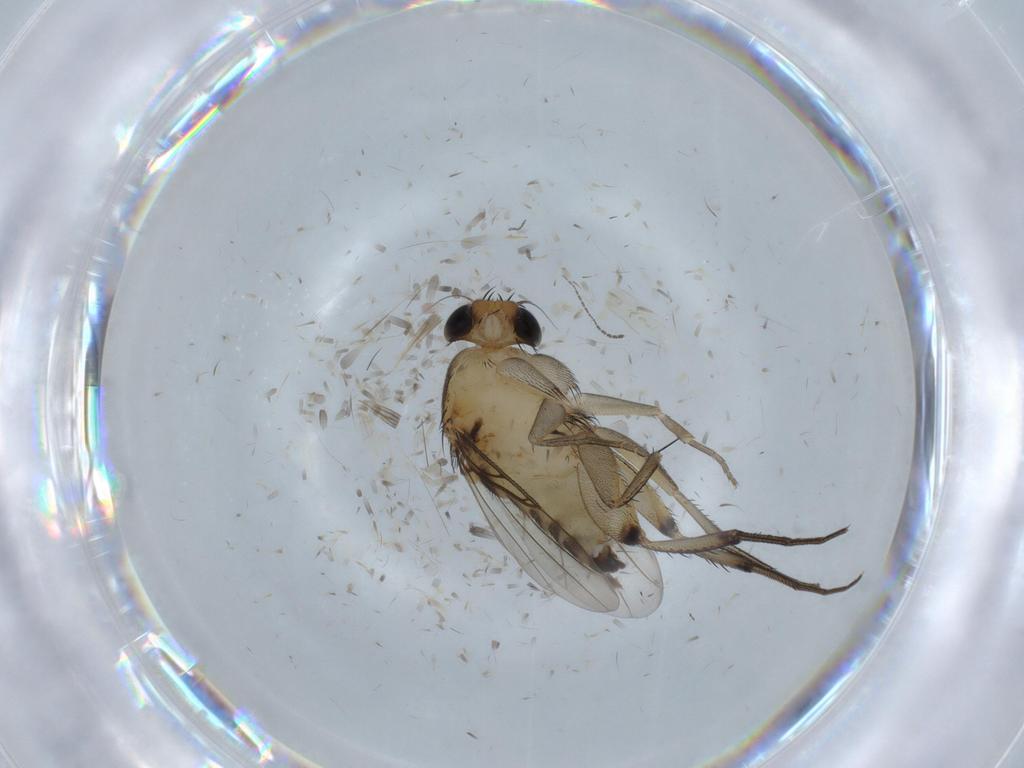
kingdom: Animalia
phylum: Arthropoda
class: Insecta
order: Diptera
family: Phoridae
